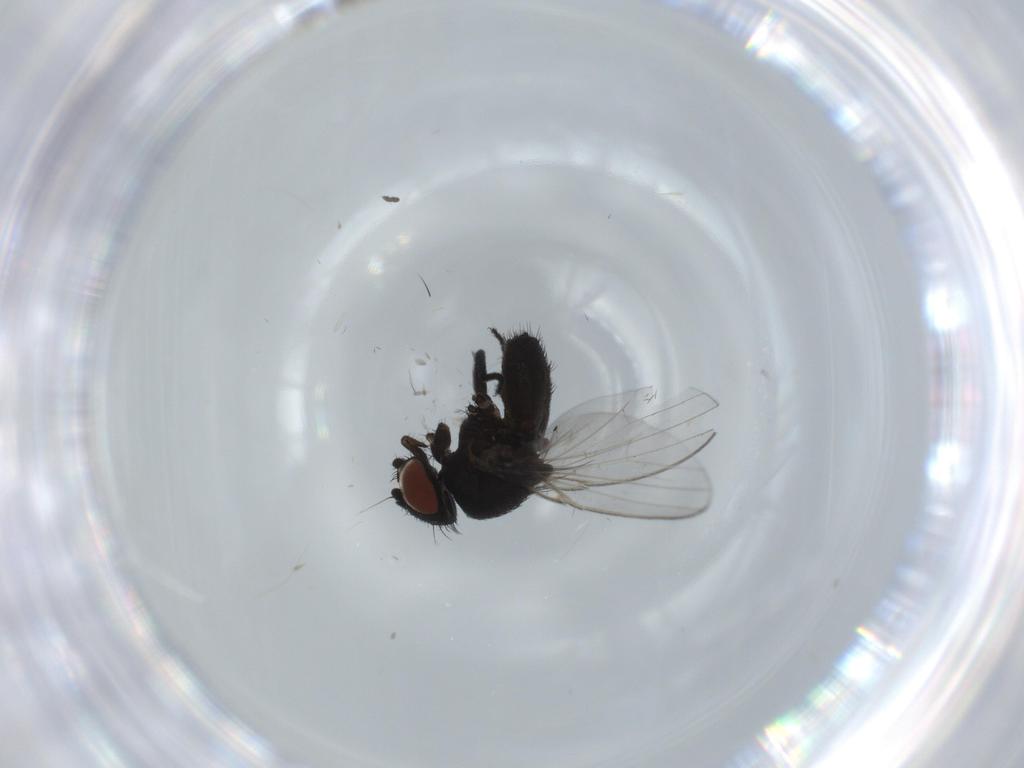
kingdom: Animalia
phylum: Arthropoda
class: Insecta
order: Diptera
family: Milichiidae
